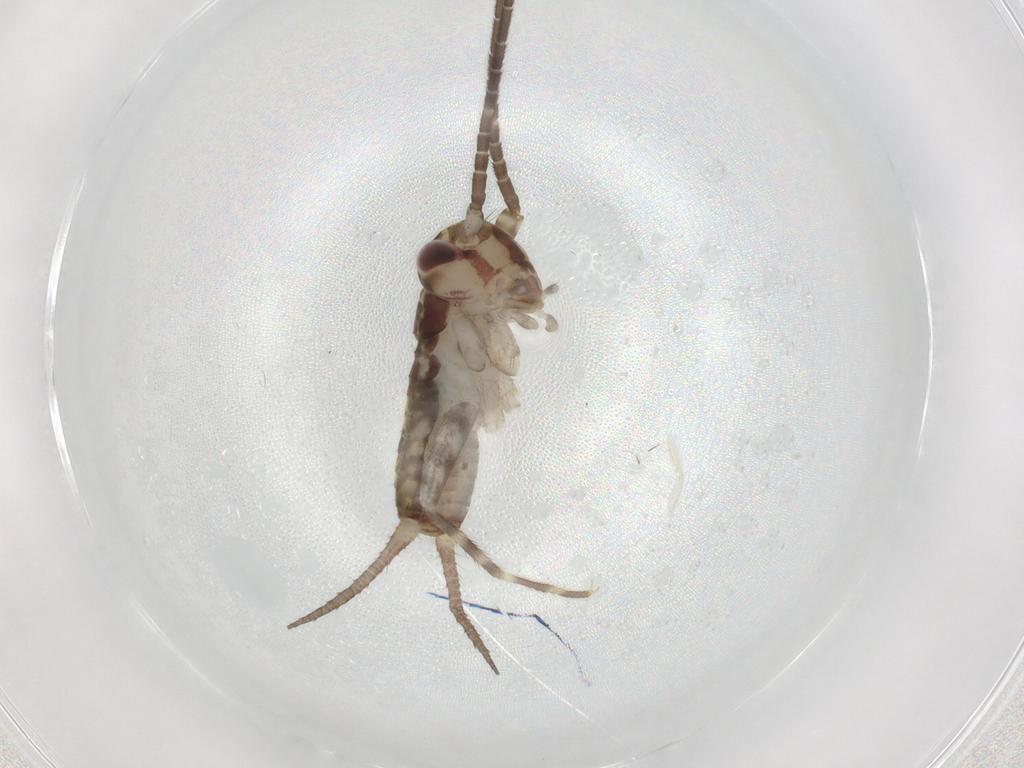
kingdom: Animalia
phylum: Arthropoda
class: Insecta
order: Orthoptera
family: Gryllidae
